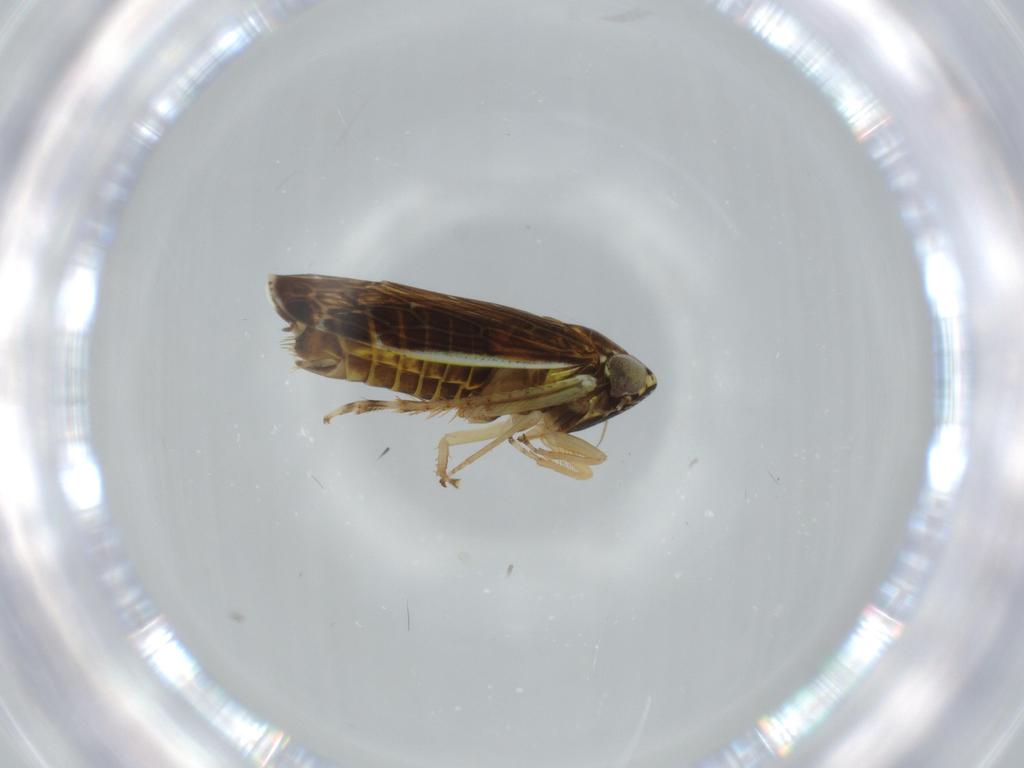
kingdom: Animalia
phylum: Arthropoda
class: Insecta
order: Hemiptera
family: Cicadellidae
